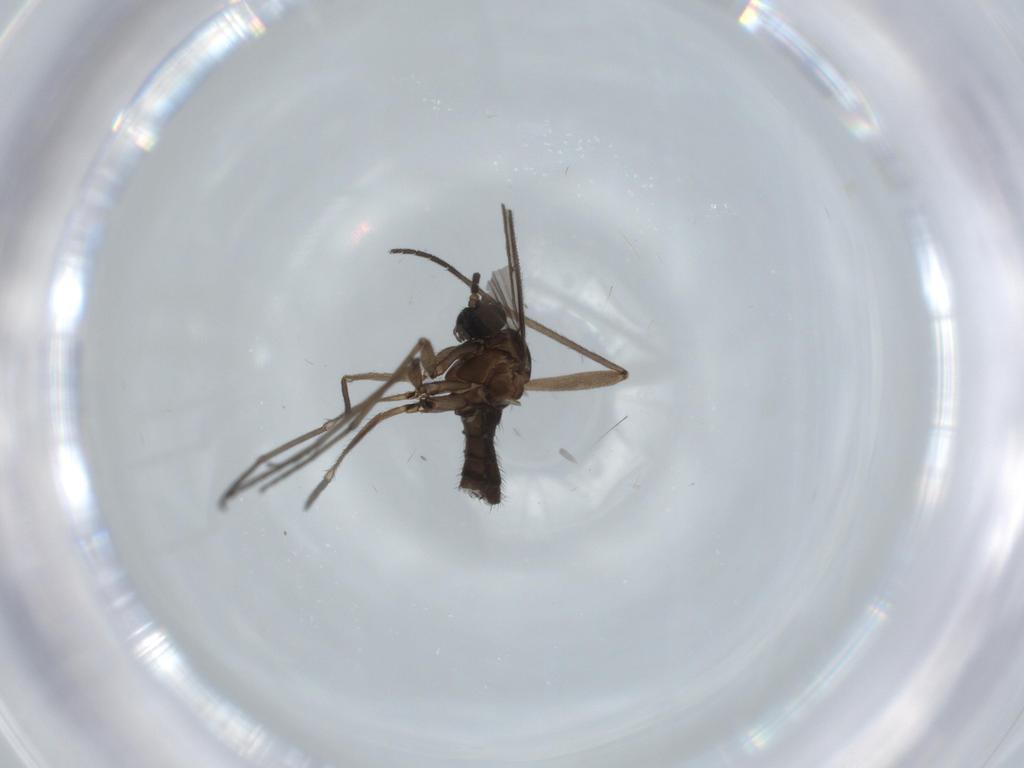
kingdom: Animalia
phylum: Arthropoda
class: Insecta
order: Diptera
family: Sciaridae
